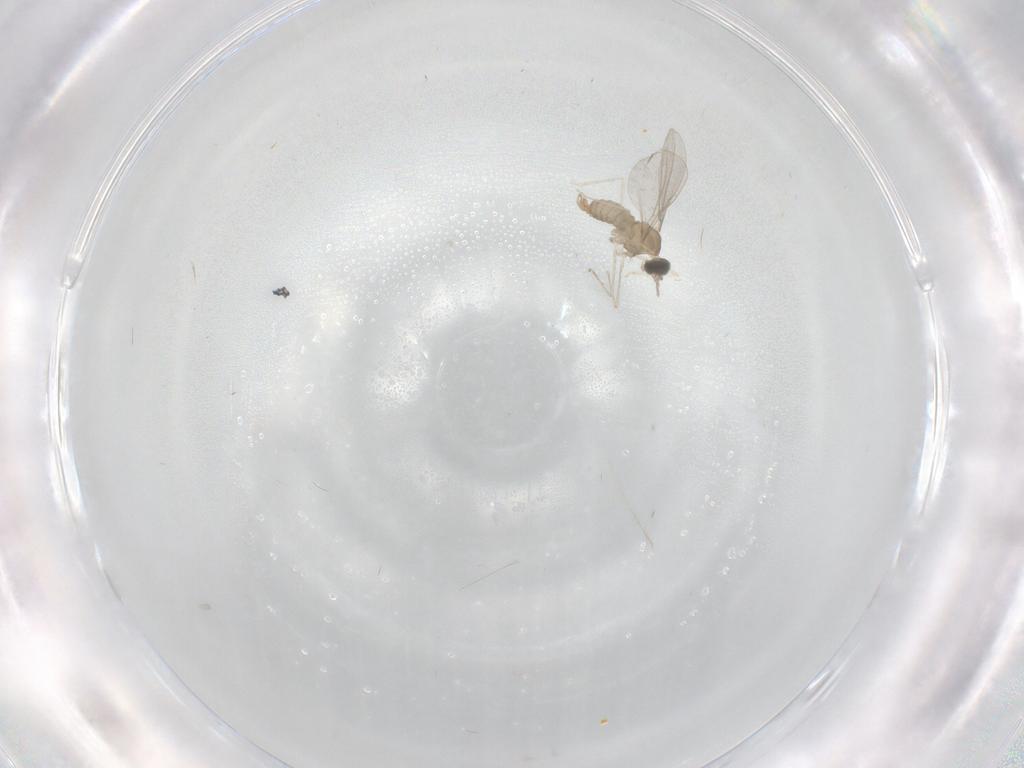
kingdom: Animalia
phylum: Arthropoda
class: Insecta
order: Diptera
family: Cecidomyiidae
